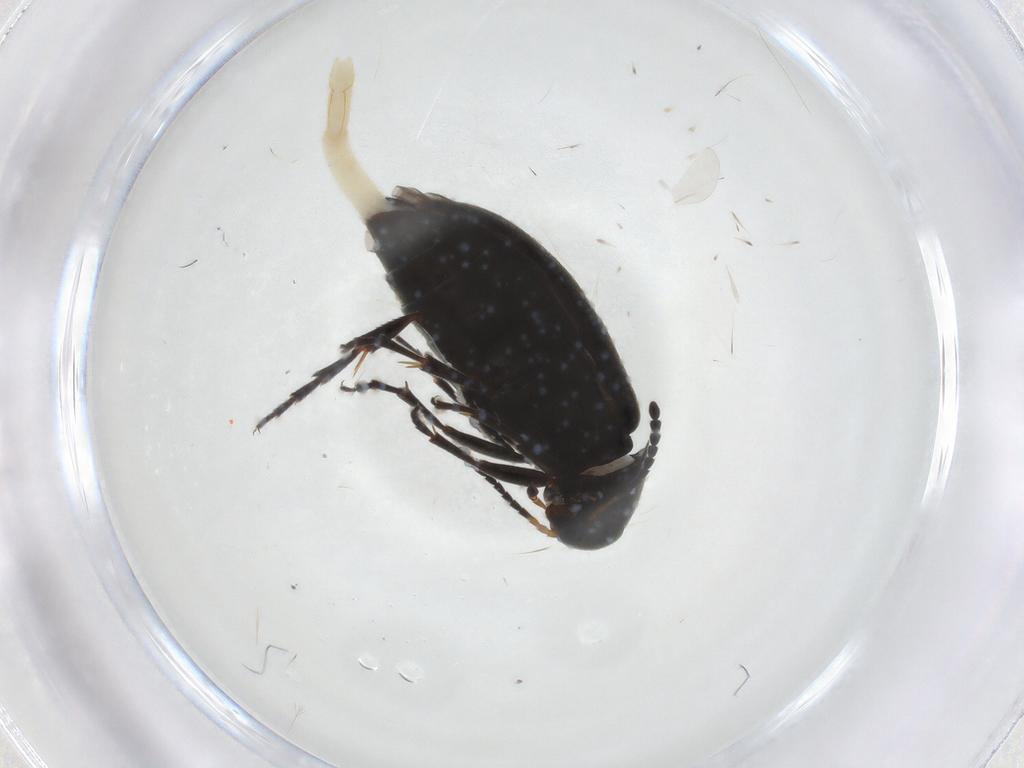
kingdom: Animalia
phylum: Arthropoda
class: Insecta
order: Coleoptera
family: Scraptiidae
